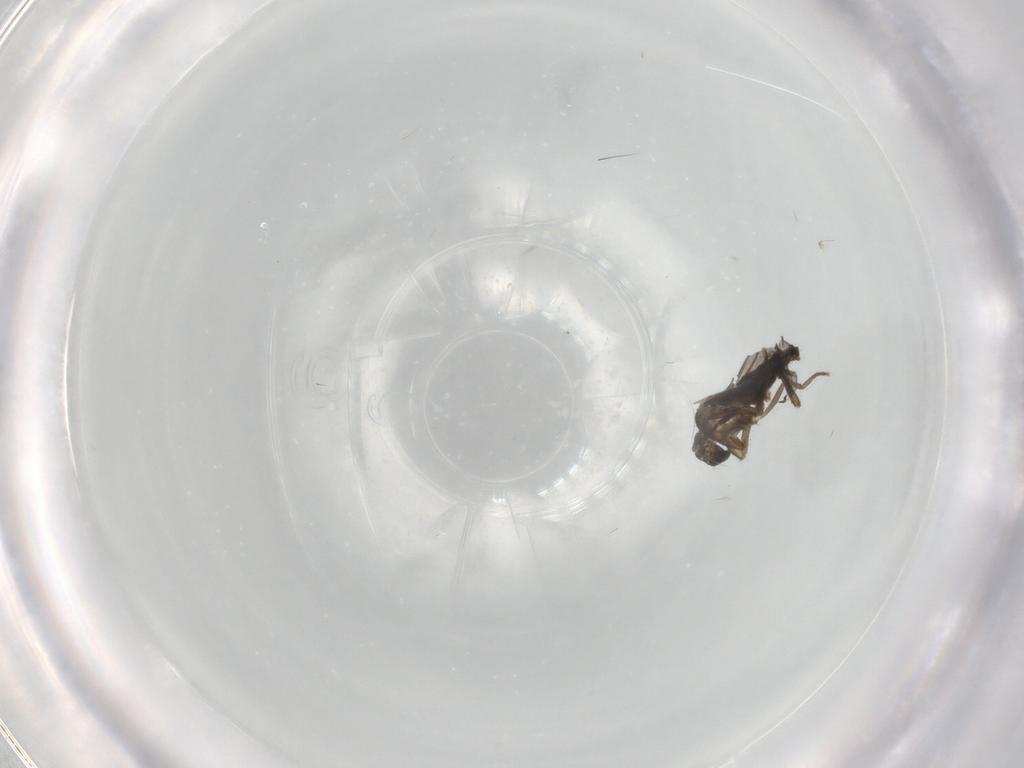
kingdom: Animalia
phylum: Arthropoda
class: Insecta
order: Diptera
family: Tabanidae
